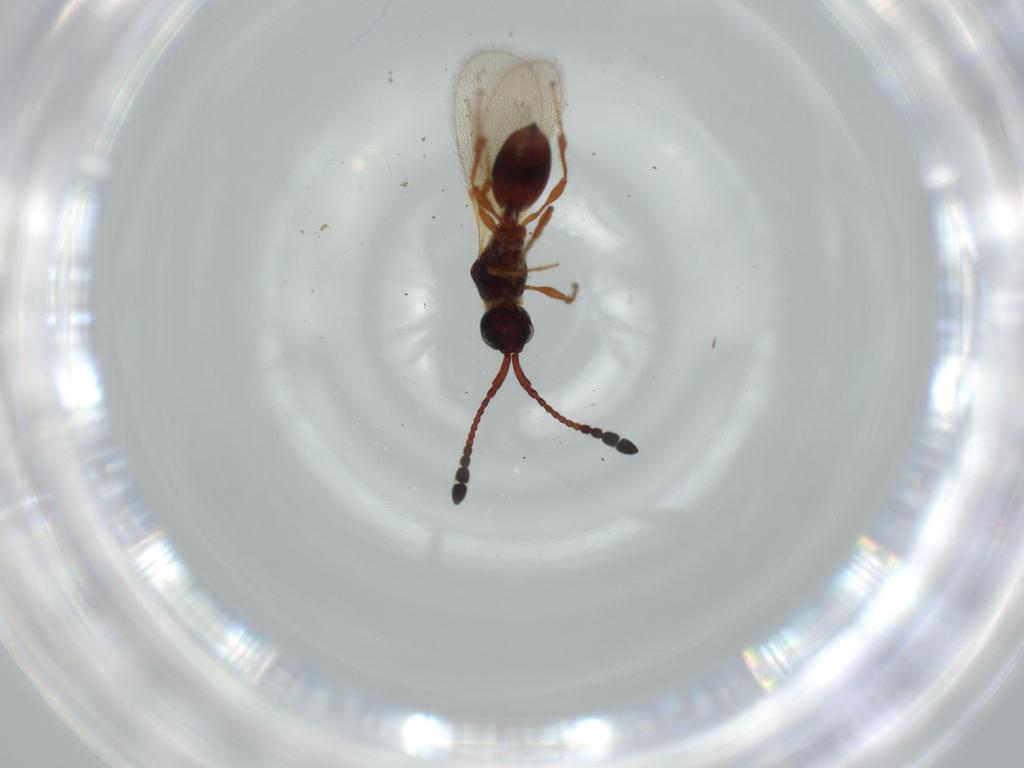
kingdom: Animalia
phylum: Arthropoda
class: Insecta
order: Hymenoptera
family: Diapriidae
